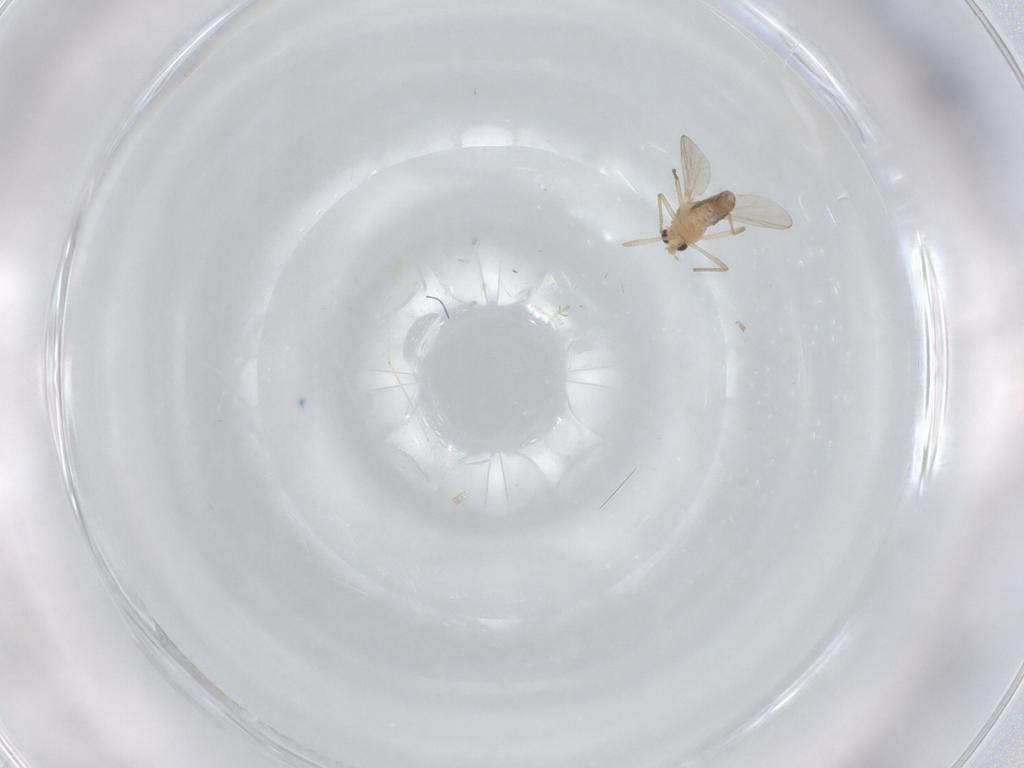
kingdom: Animalia
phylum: Arthropoda
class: Insecta
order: Diptera
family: Chironomidae
